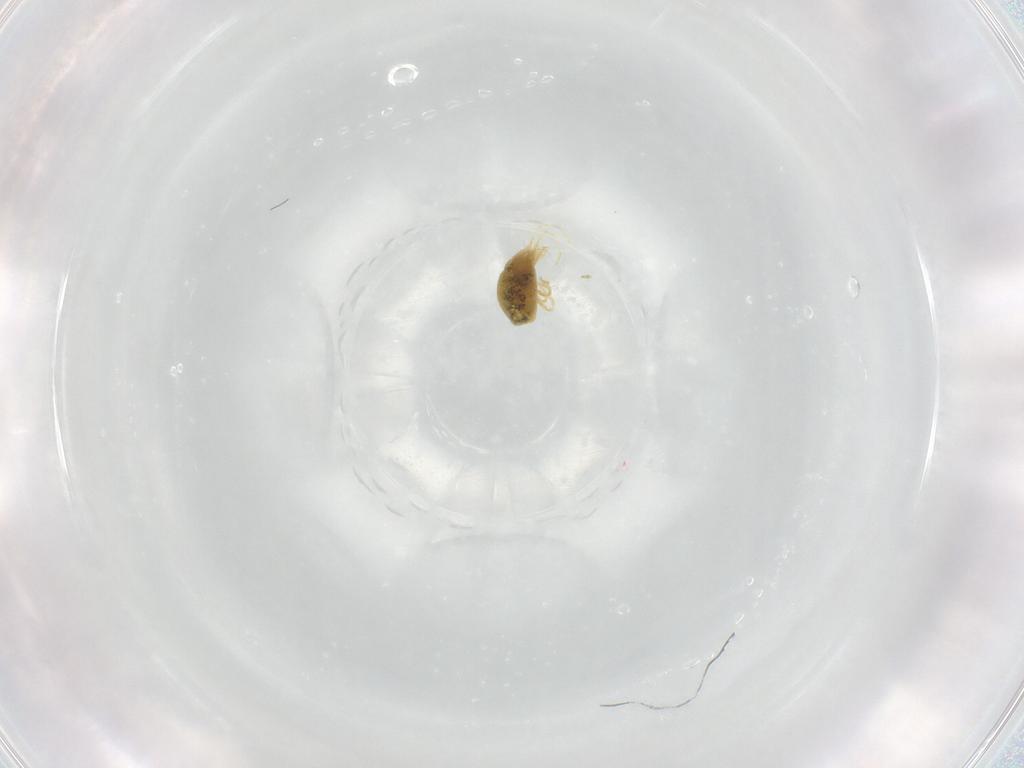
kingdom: Animalia
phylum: Arthropoda
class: Arachnida
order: Trombidiformes
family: Tetranychidae
